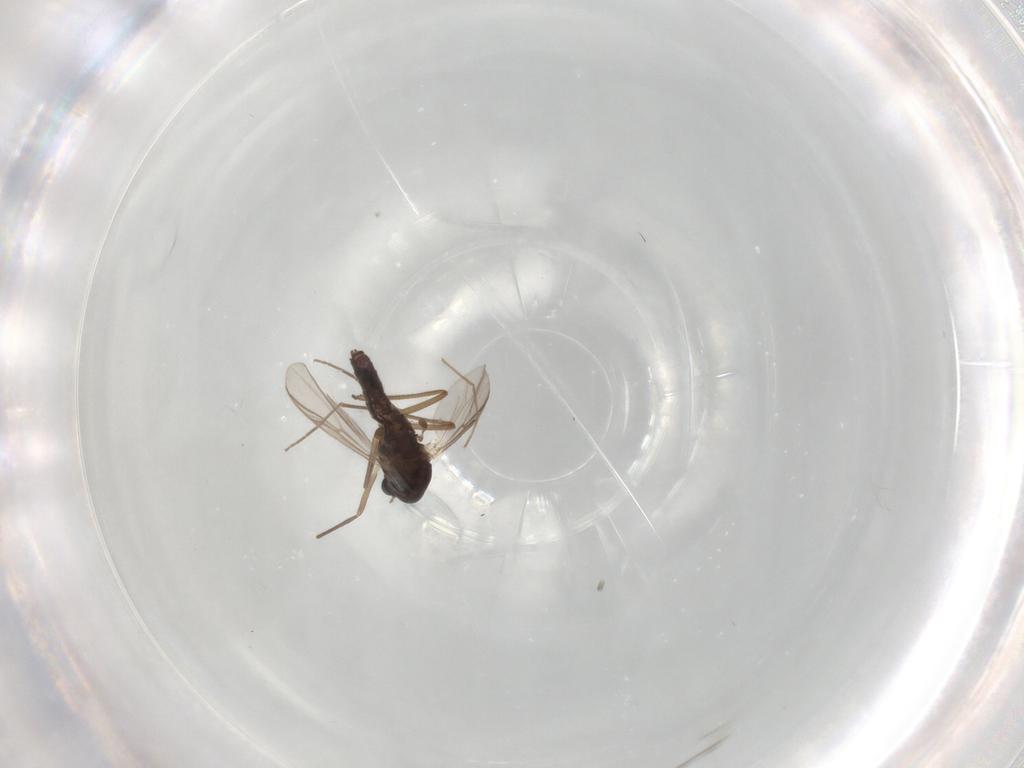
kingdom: Animalia
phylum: Arthropoda
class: Insecta
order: Diptera
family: Chironomidae
